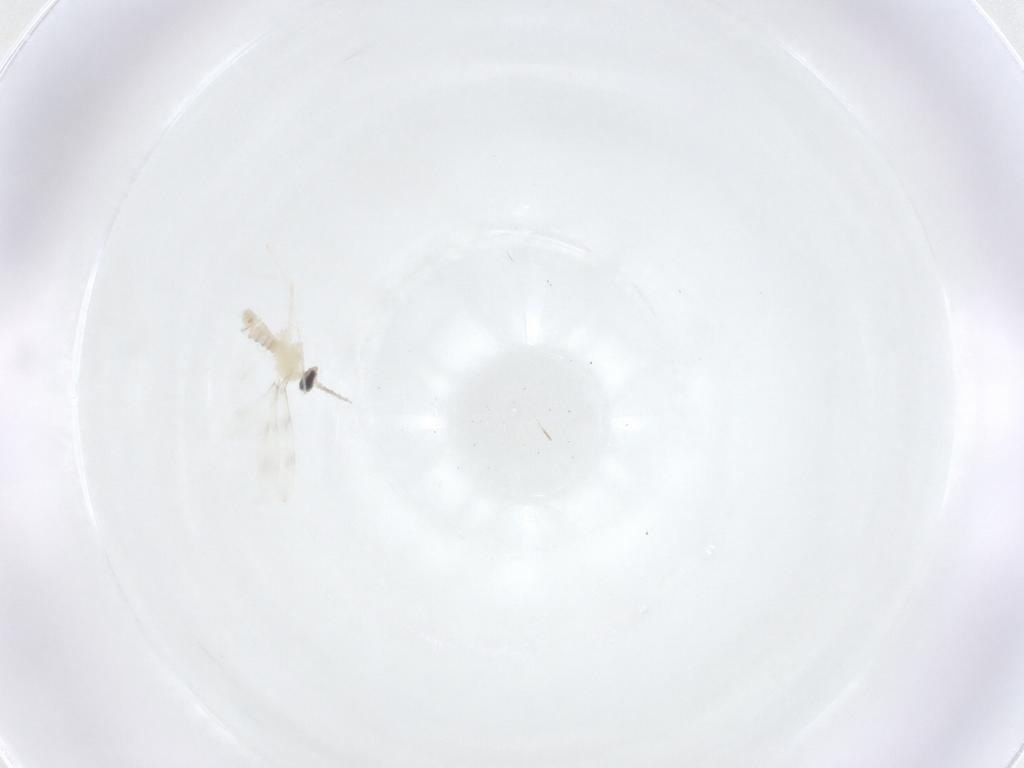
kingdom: Animalia
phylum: Arthropoda
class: Insecta
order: Diptera
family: Cecidomyiidae
